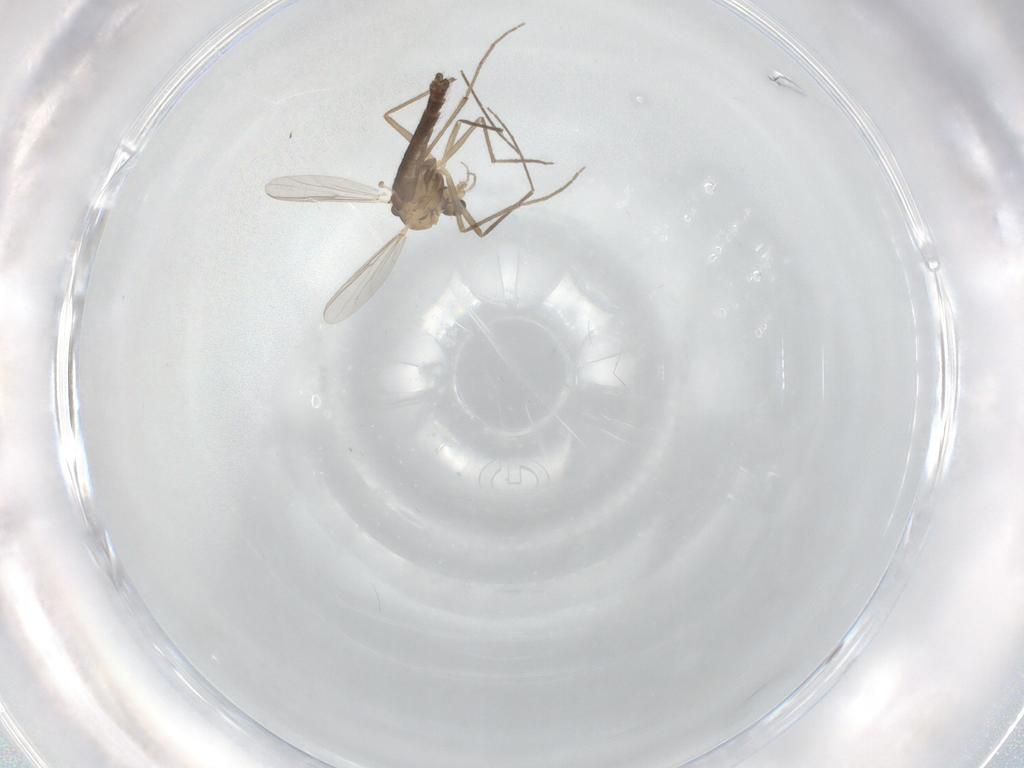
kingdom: Animalia
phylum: Arthropoda
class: Insecta
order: Diptera
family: Chironomidae
